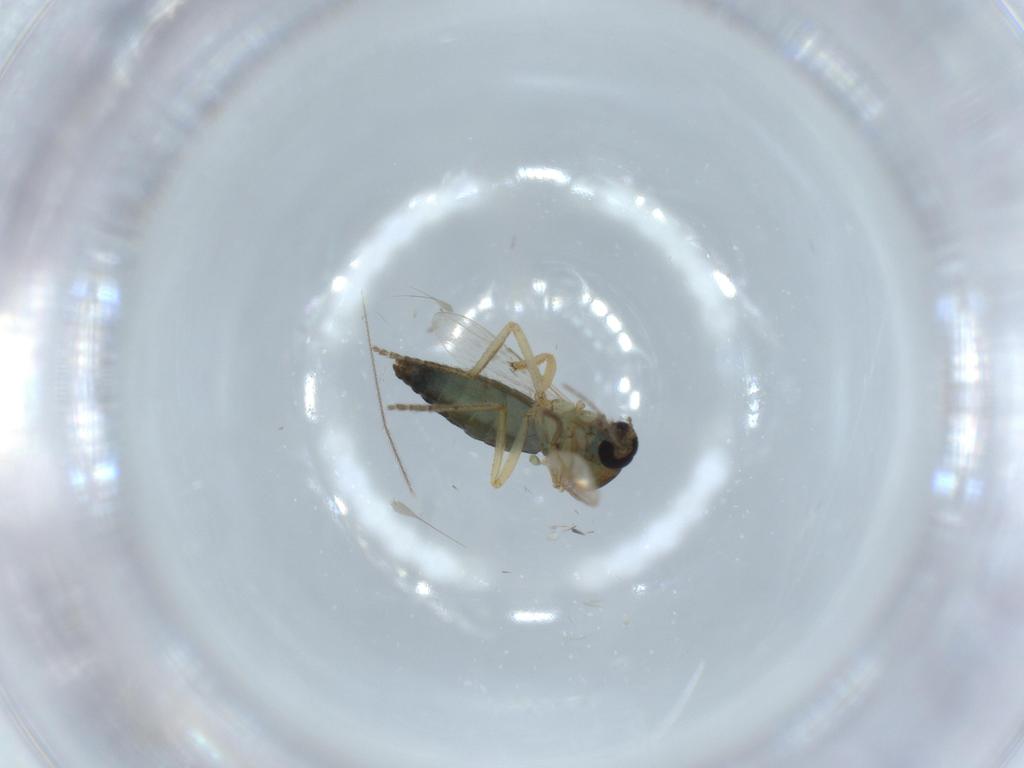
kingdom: Animalia
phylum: Arthropoda
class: Insecta
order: Diptera
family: Ceratopogonidae
